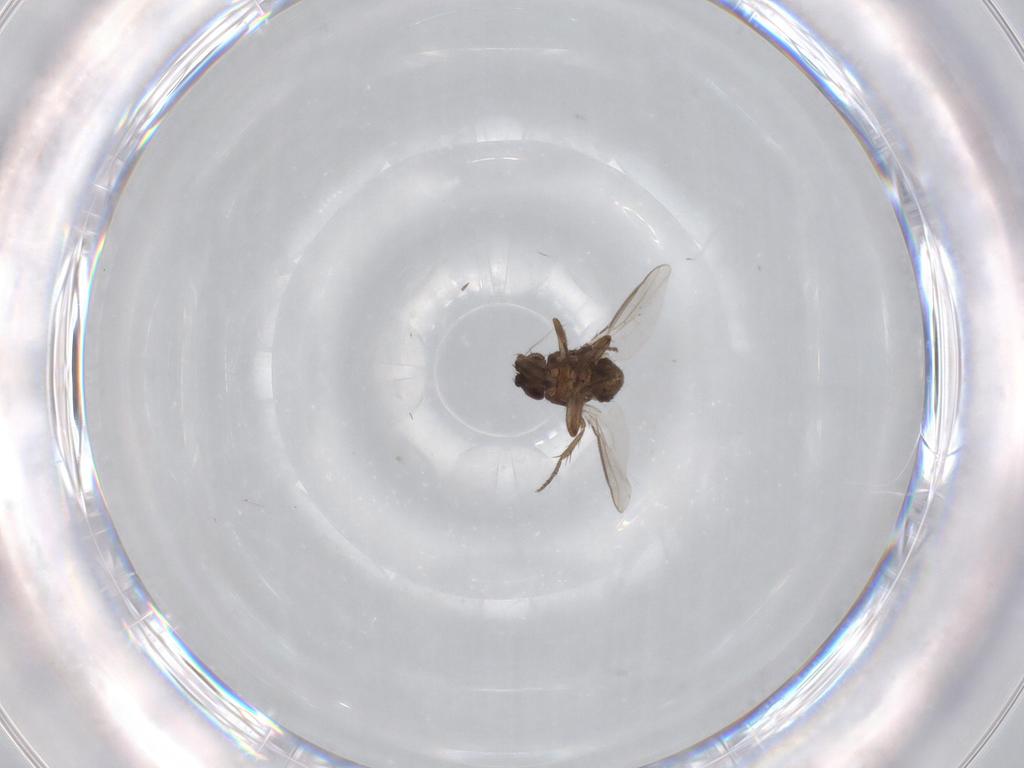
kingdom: Animalia
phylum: Arthropoda
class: Insecta
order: Diptera
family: Sphaeroceridae
